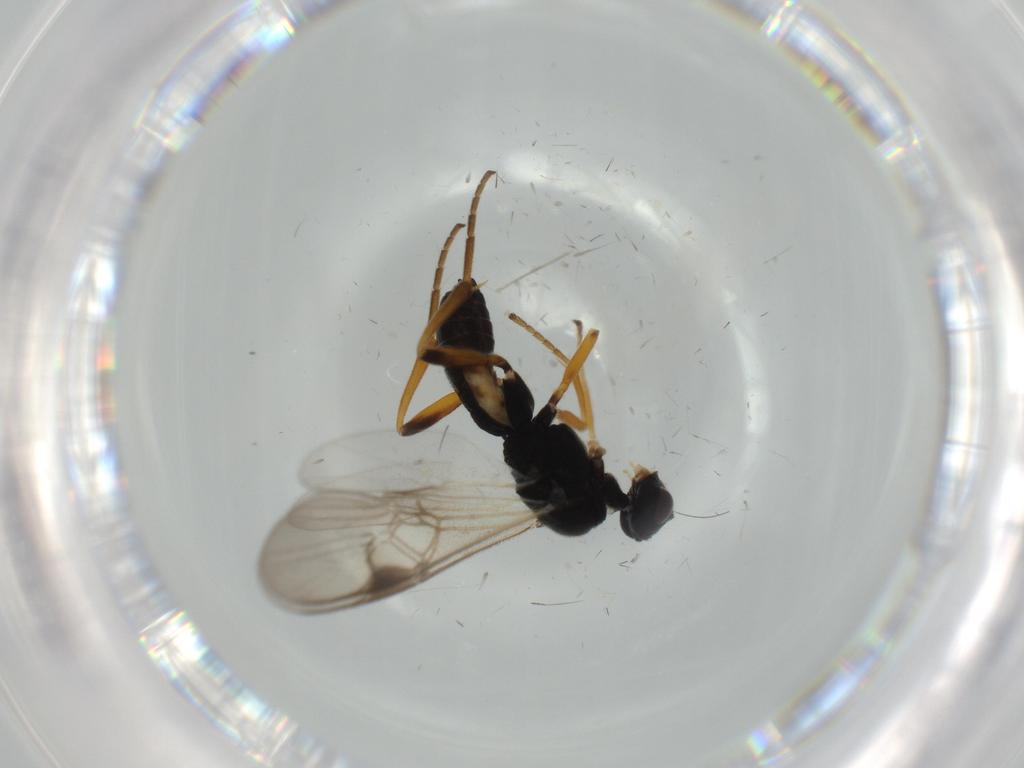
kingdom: Animalia
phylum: Arthropoda
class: Insecta
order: Hymenoptera
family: Braconidae
